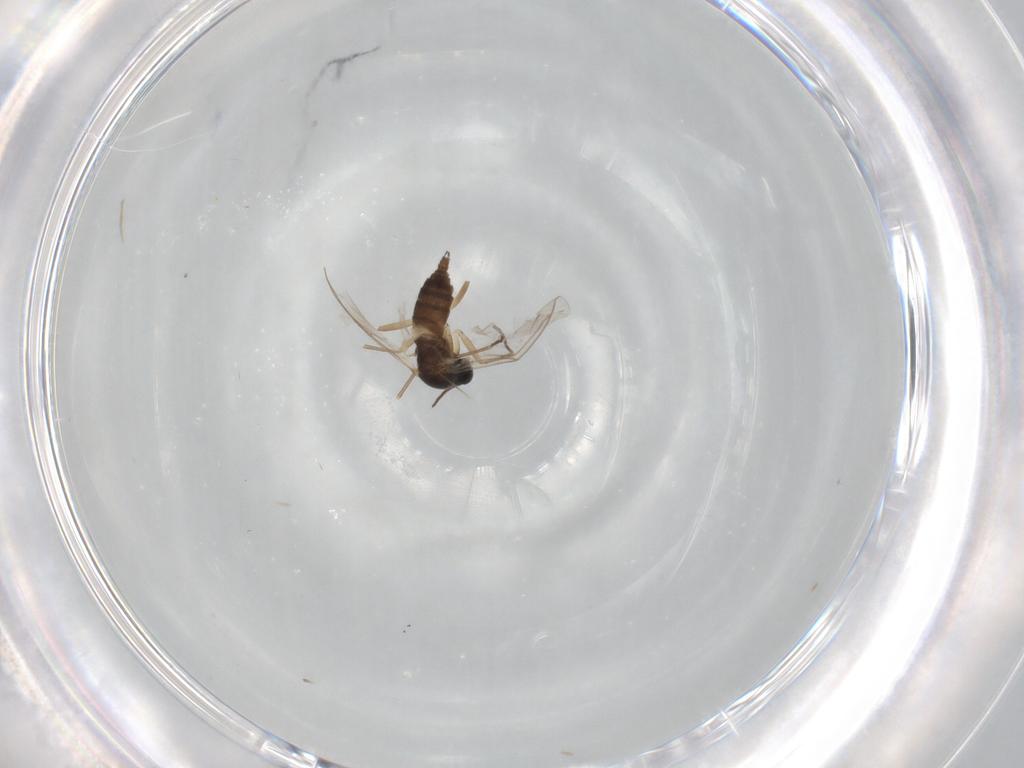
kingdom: Animalia
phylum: Arthropoda
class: Insecta
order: Diptera
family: Sciaridae
